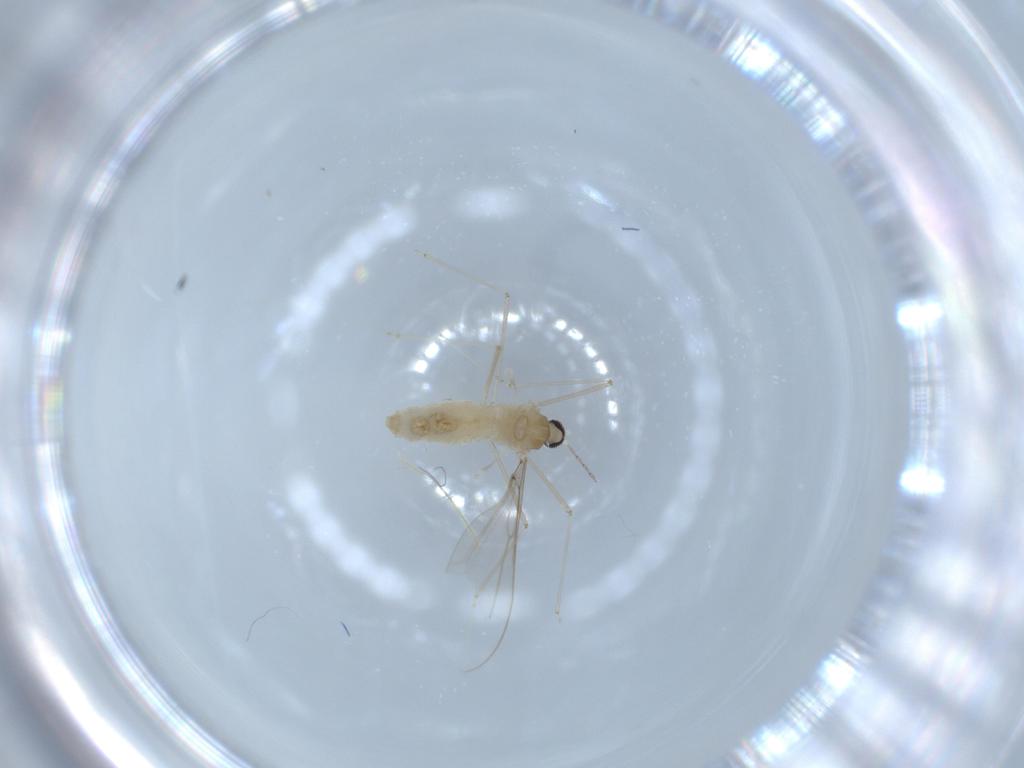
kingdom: Animalia
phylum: Arthropoda
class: Insecta
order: Diptera
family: Cecidomyiidae
